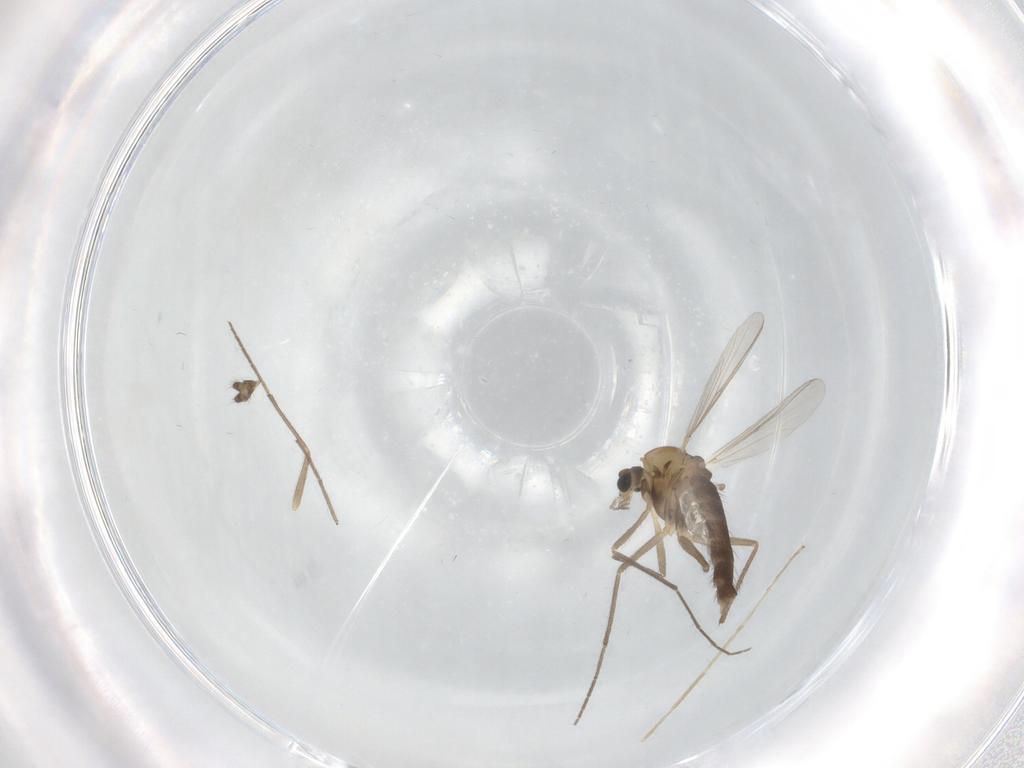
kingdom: Animalia
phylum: Arthropoda
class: Insecta
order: Diptera
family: Chironomidae
